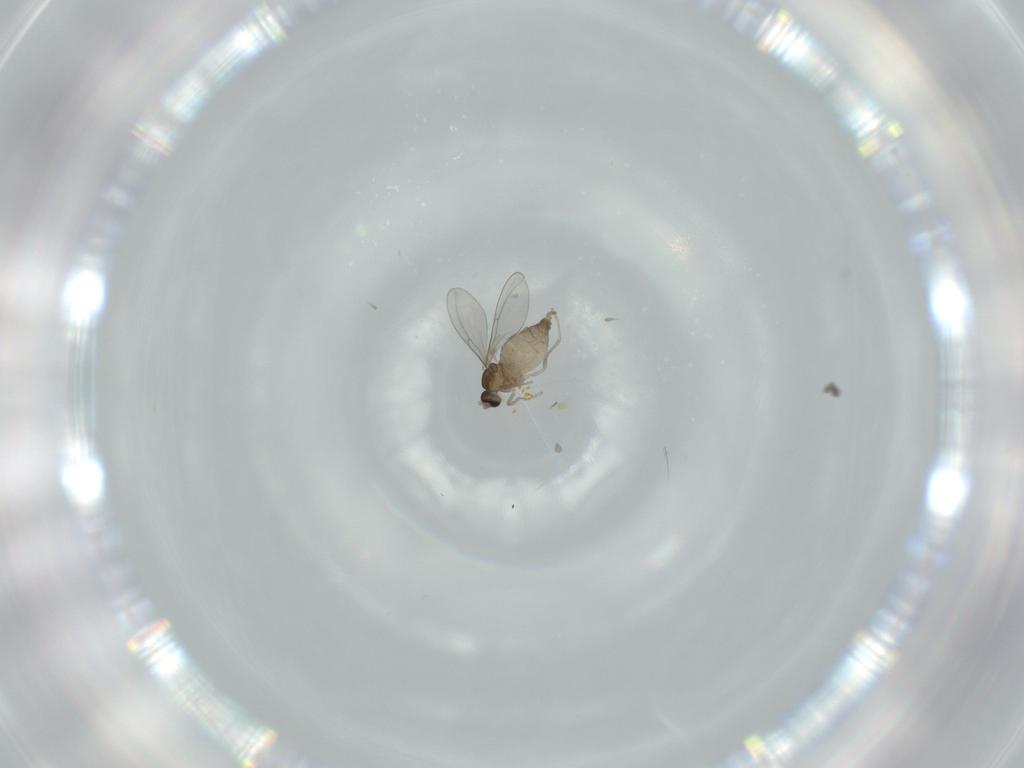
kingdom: Animalia
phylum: Arthropoda
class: Insecta
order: Diptera
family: Cecidomyiidae
